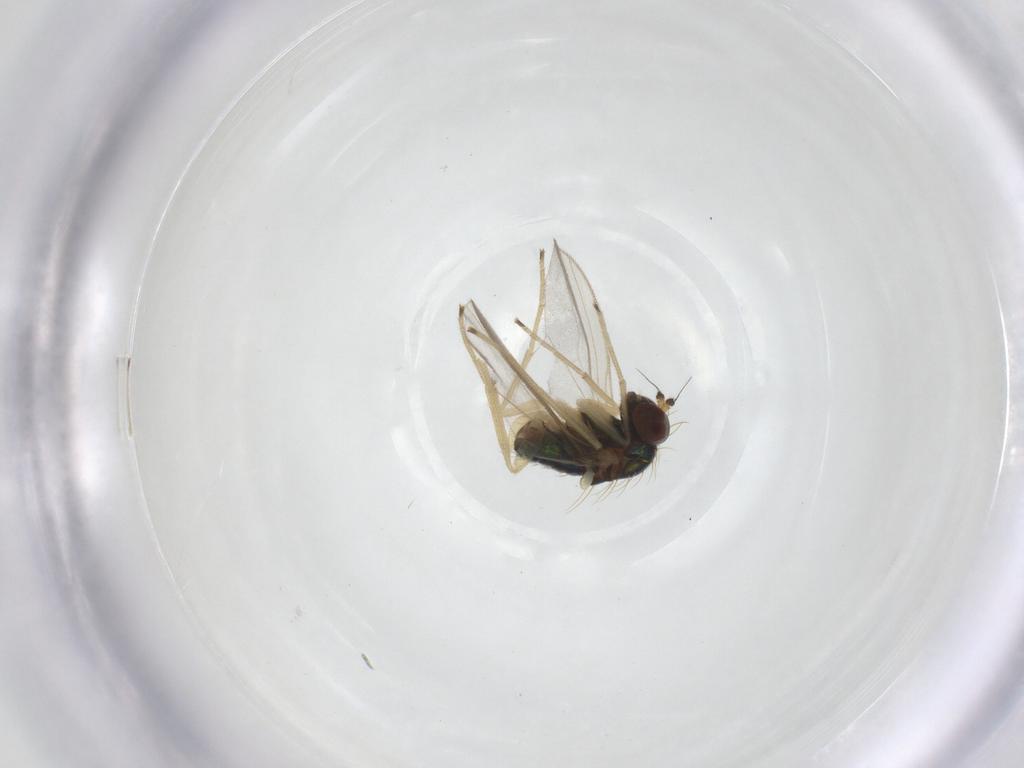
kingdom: Animalia
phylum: Arthropoda
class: Insecta
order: Diptera
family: Dolichopodidae
